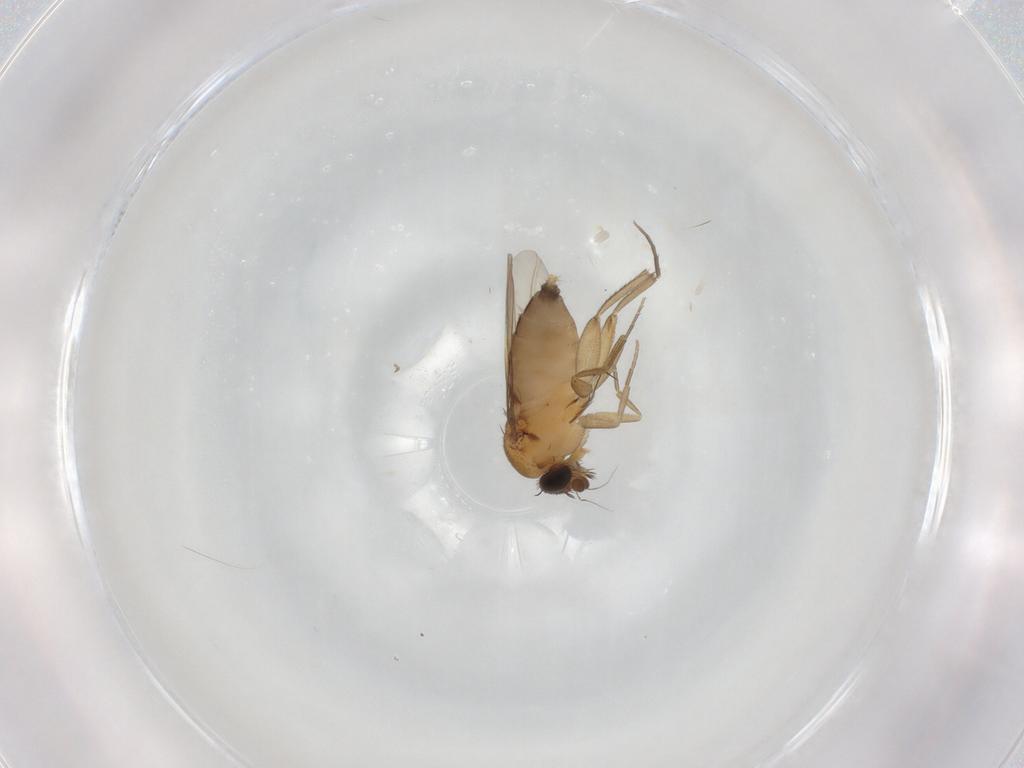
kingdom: Animalia
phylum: Arthropoda
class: Insecta
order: Diptera
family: Phoridae
